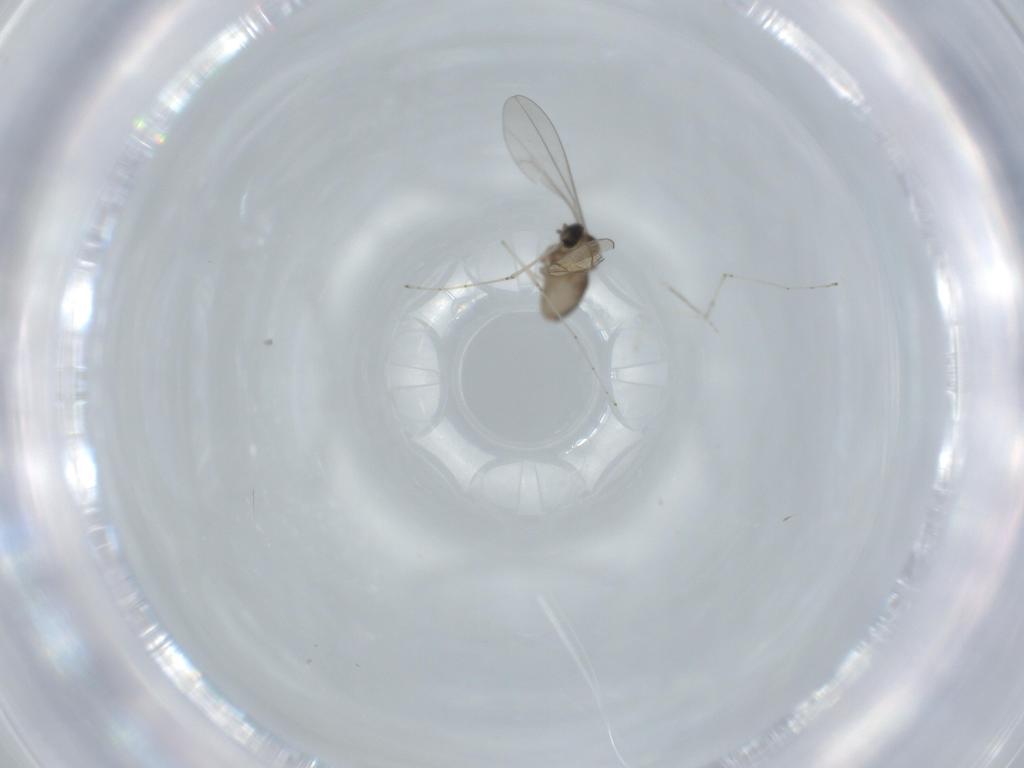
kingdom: Animalia
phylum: Arthropoda
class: Insecta
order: Diptera
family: Cecidomyiidae
